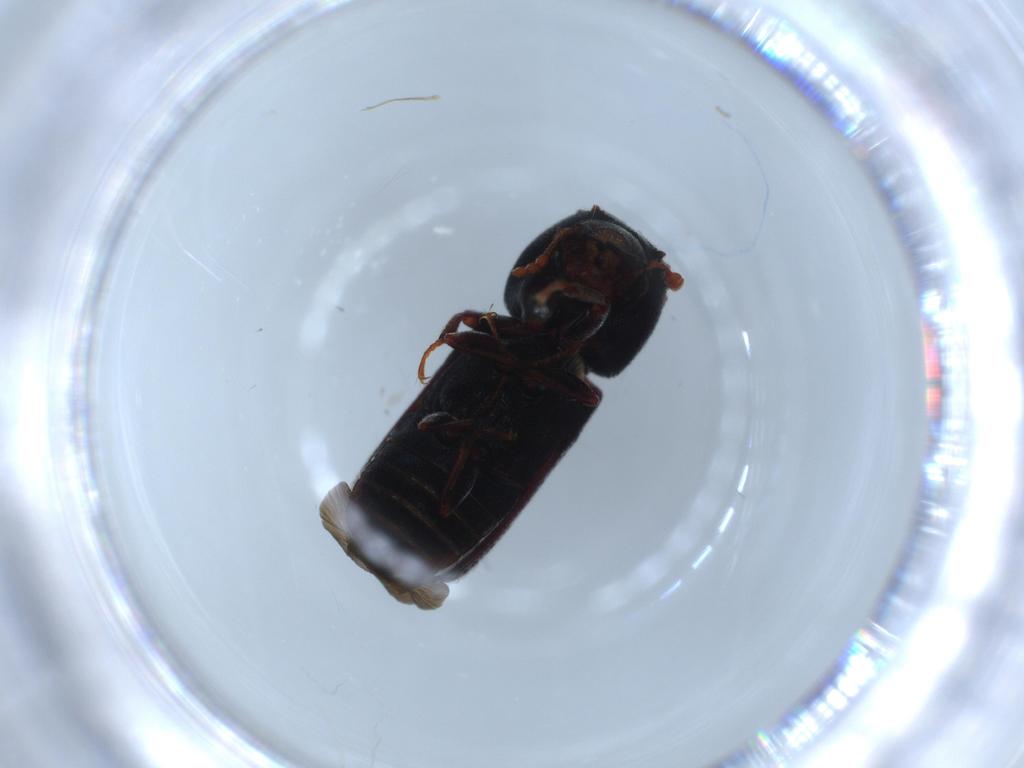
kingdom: Animalia
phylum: Arthropoda
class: Insecta
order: Coleoptera
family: Bostrichidae
